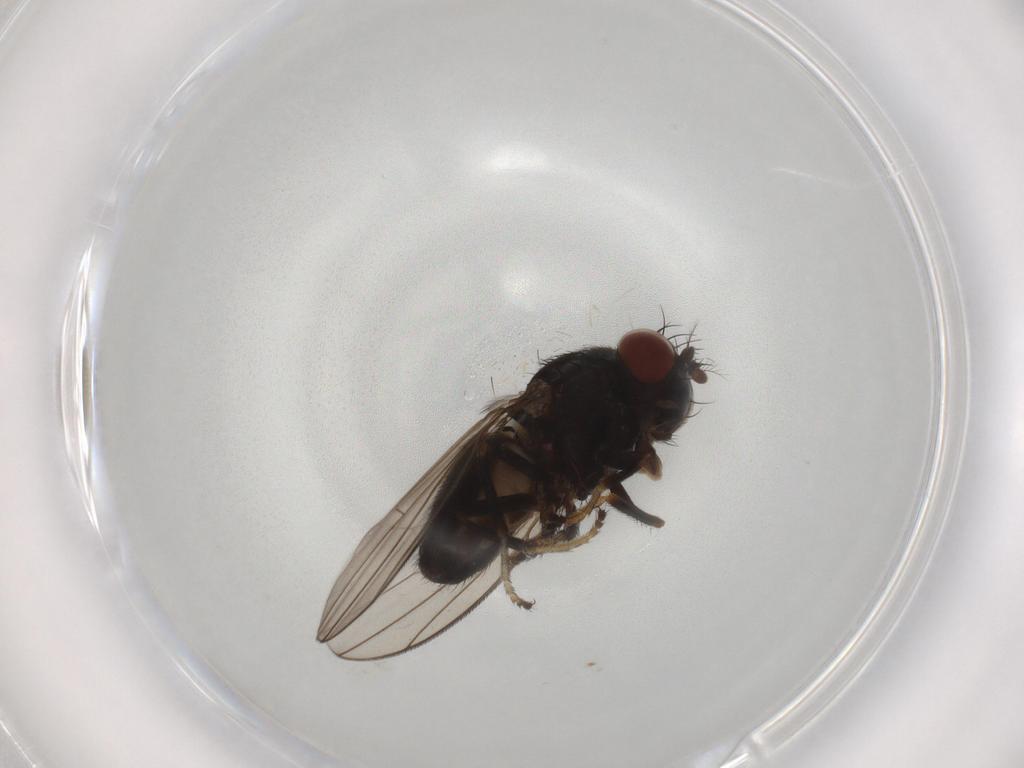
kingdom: Animalia
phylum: Arthropoda
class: Insecta
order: Diptera
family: Ephydridae
